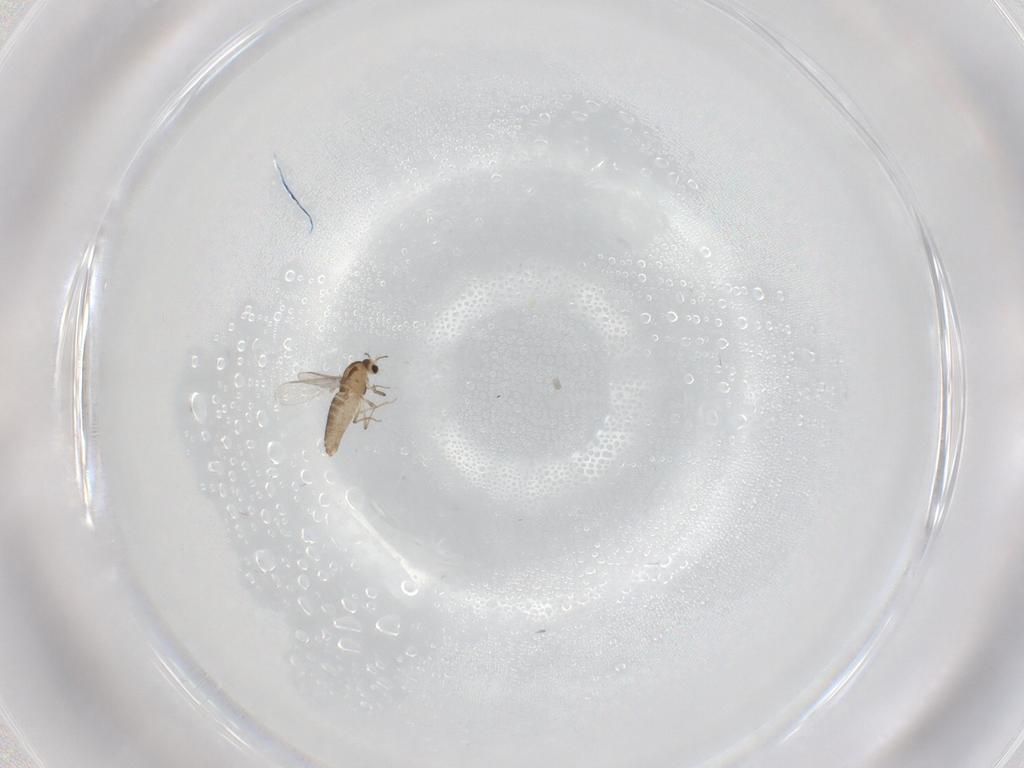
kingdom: Animalia
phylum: Arthropoda
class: Insecta
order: Diptera
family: Chironomidae
